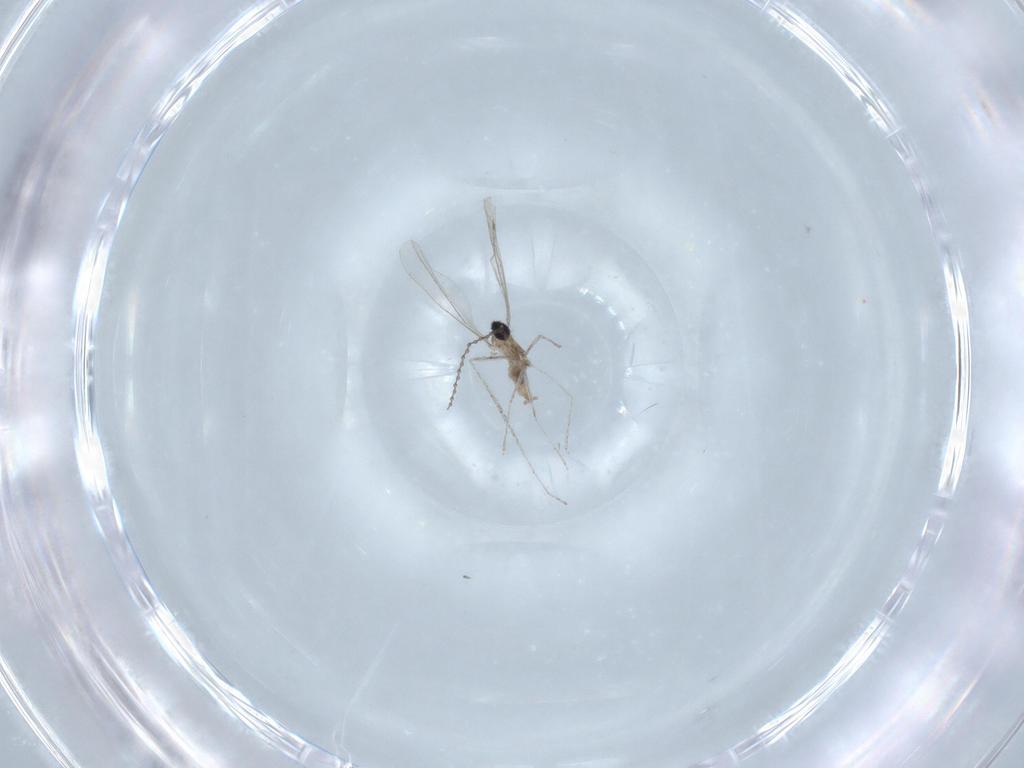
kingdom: Animalia
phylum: Arthropoda
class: Insecta
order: Diptera
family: Cecidomyiidae
